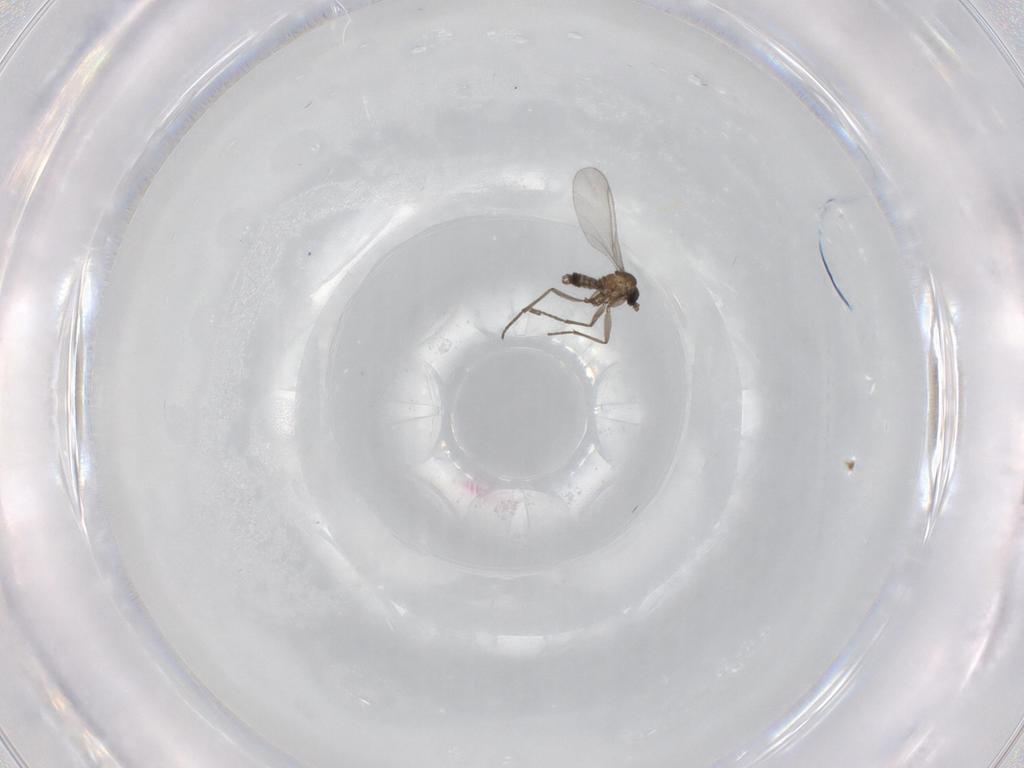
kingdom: Animalia
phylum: Arthropoda
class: Insecta
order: Diptera
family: Sciaridae
